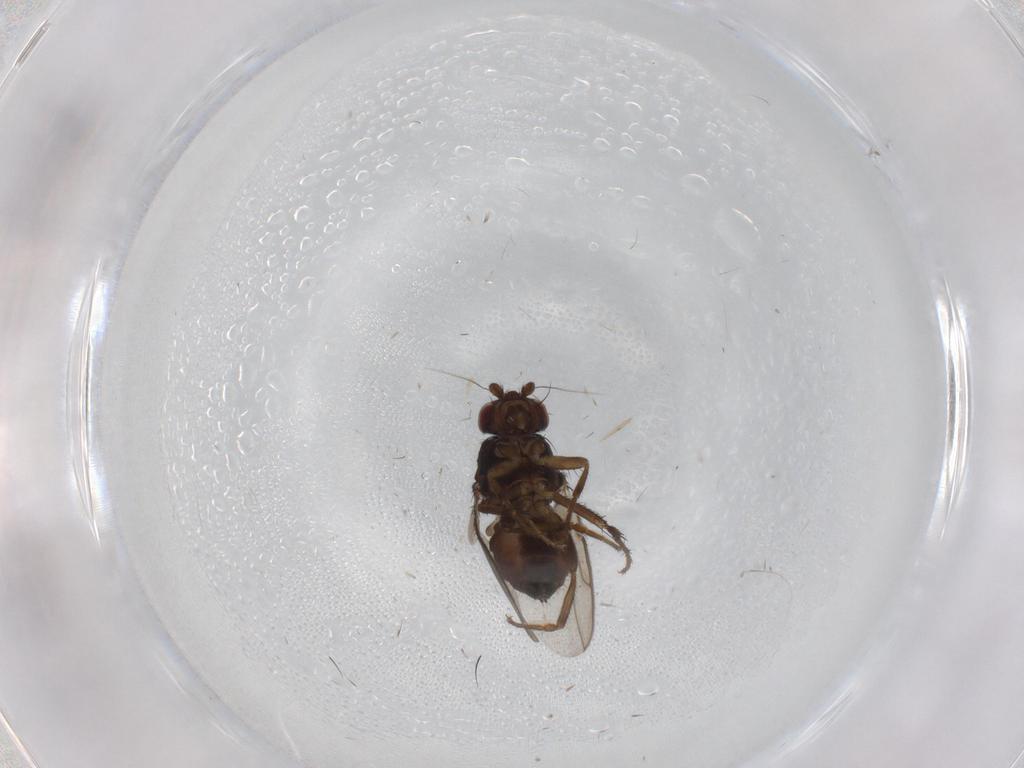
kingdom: Animalia
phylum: Arthropoda
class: Insecta
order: Diptera
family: Sphaeroceridae
